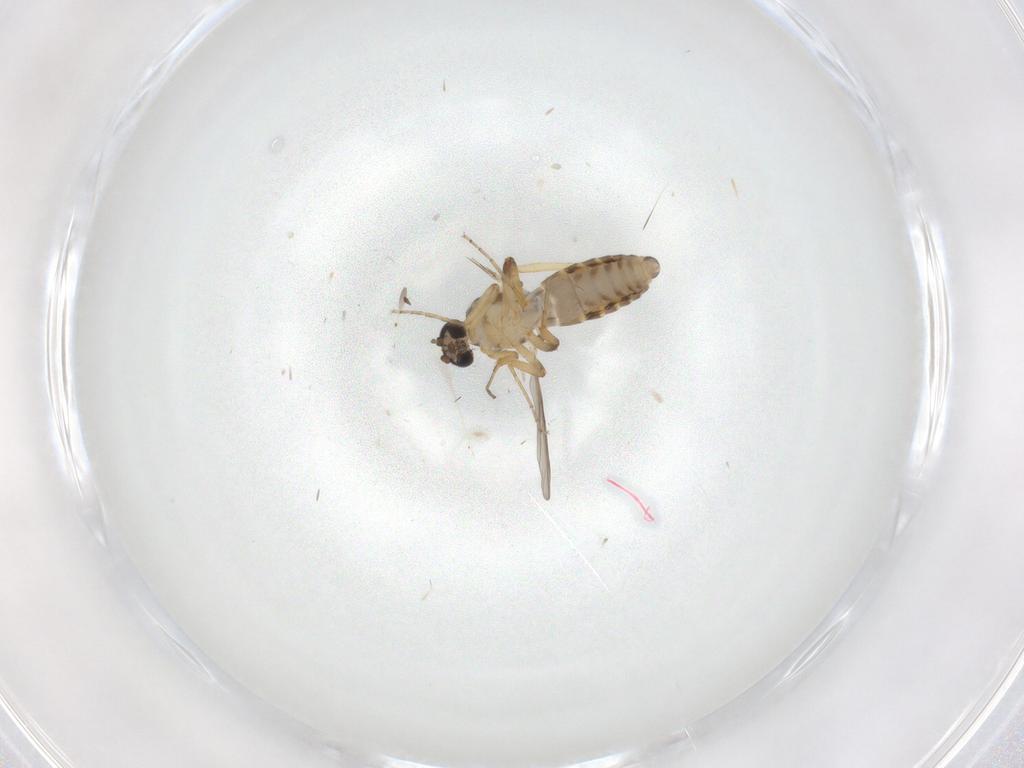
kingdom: Animalia
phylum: Arthropoda
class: Insecta
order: Diptera
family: Psychodidae
